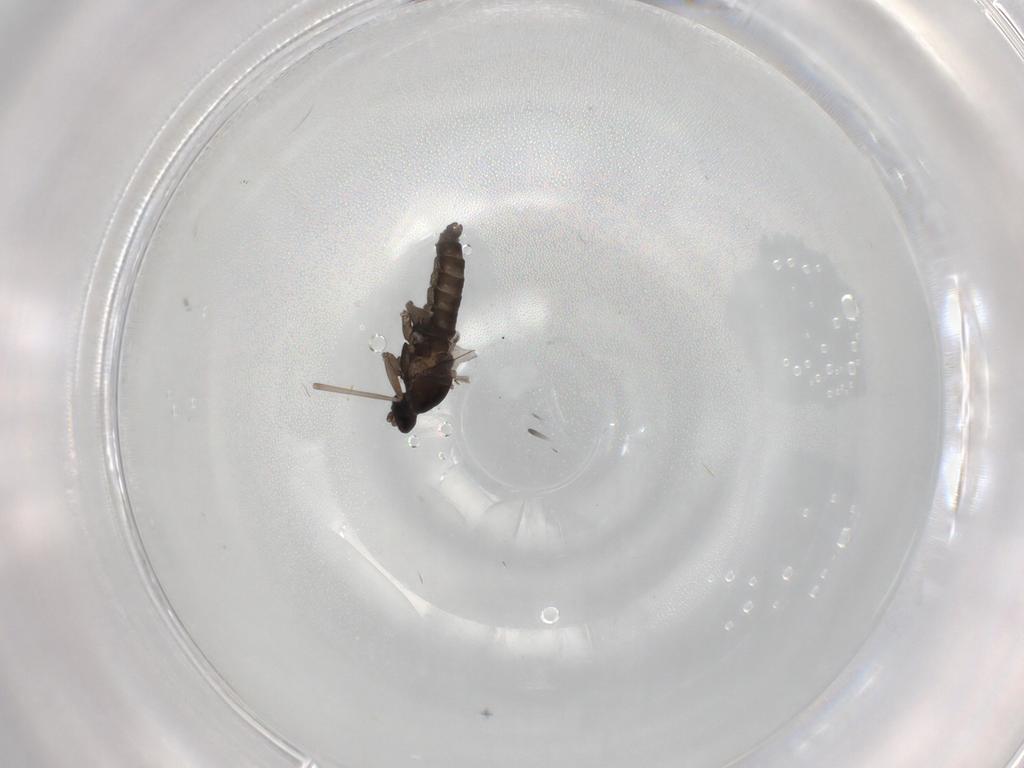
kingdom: Animalia
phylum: Arthropoda
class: Insecta
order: Diptera
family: Cecidomyiidae
